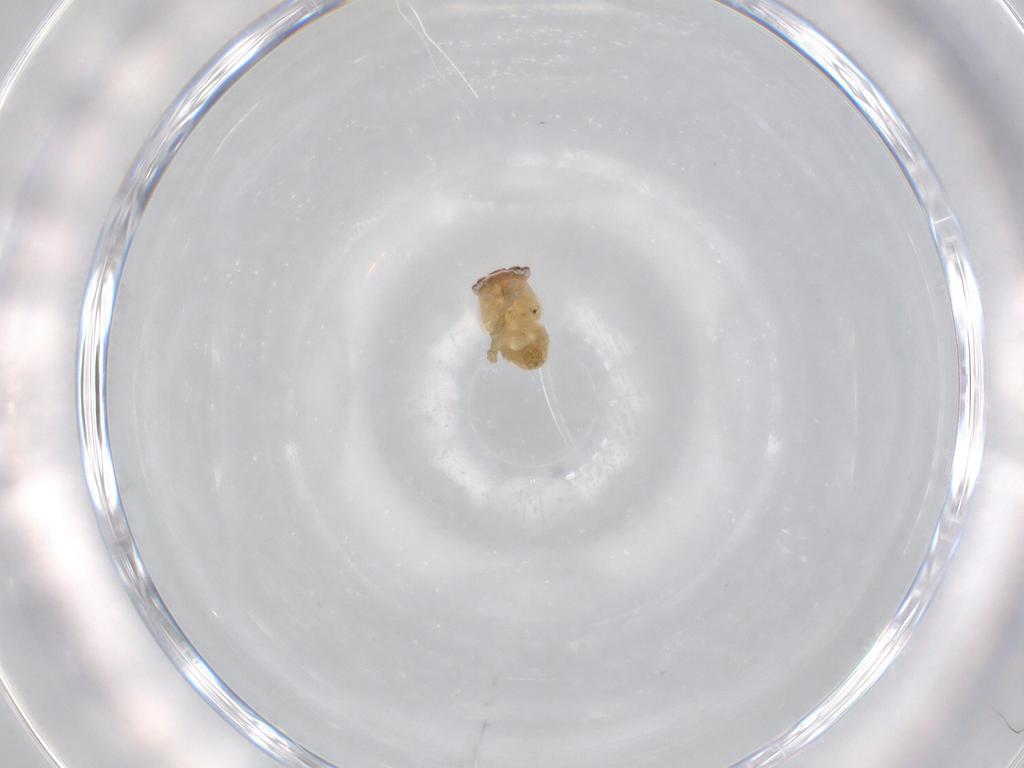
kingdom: Animalia
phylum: Arthropoda
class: Arachnida
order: Araneae
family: Thomisidae
